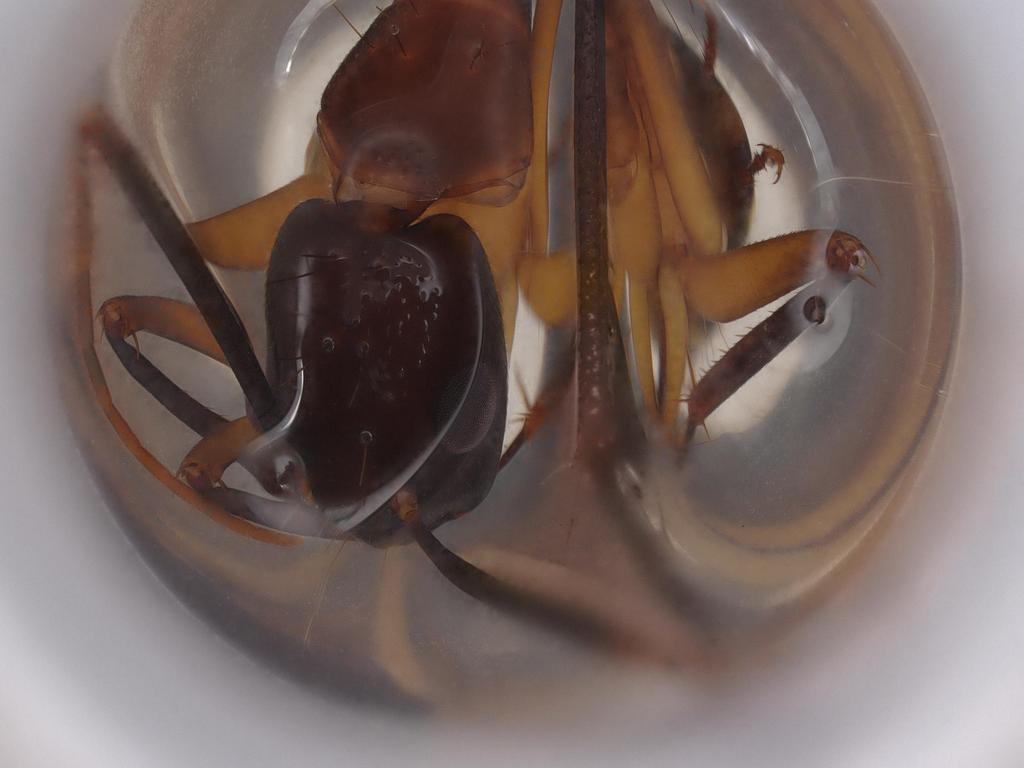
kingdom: Animalia
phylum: Arthropoda
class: Insecta
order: Hymenoptera
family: Formicidae
